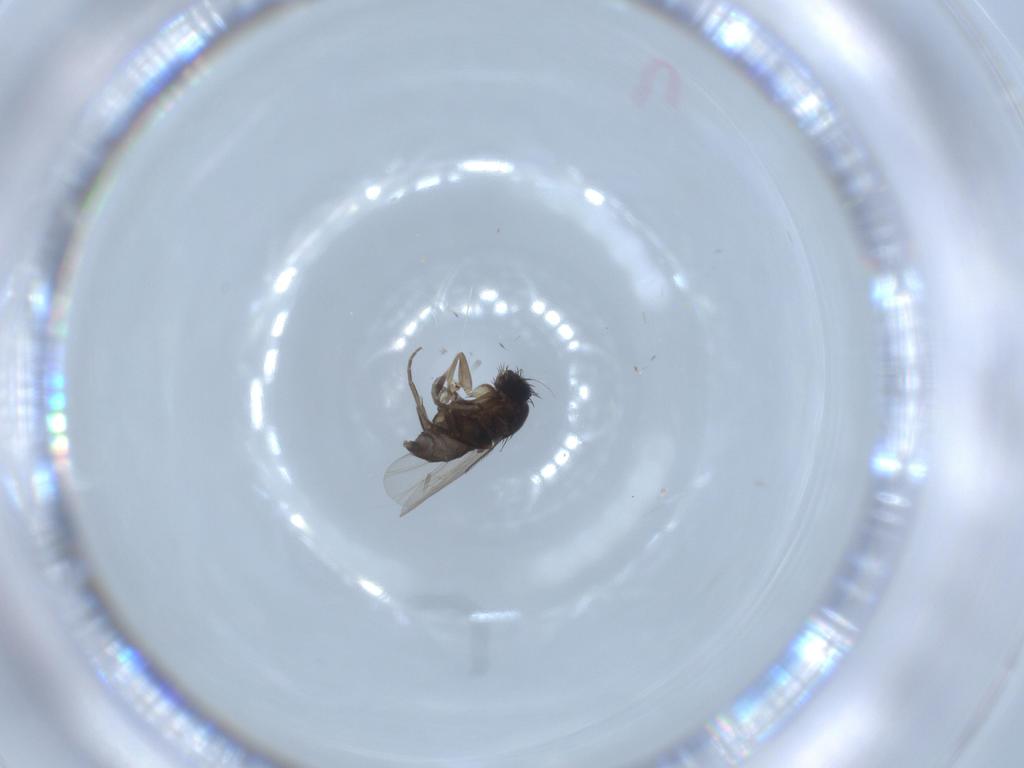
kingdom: Animalia
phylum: Arthropoda
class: Insecta
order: Diptera
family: Phoridae
